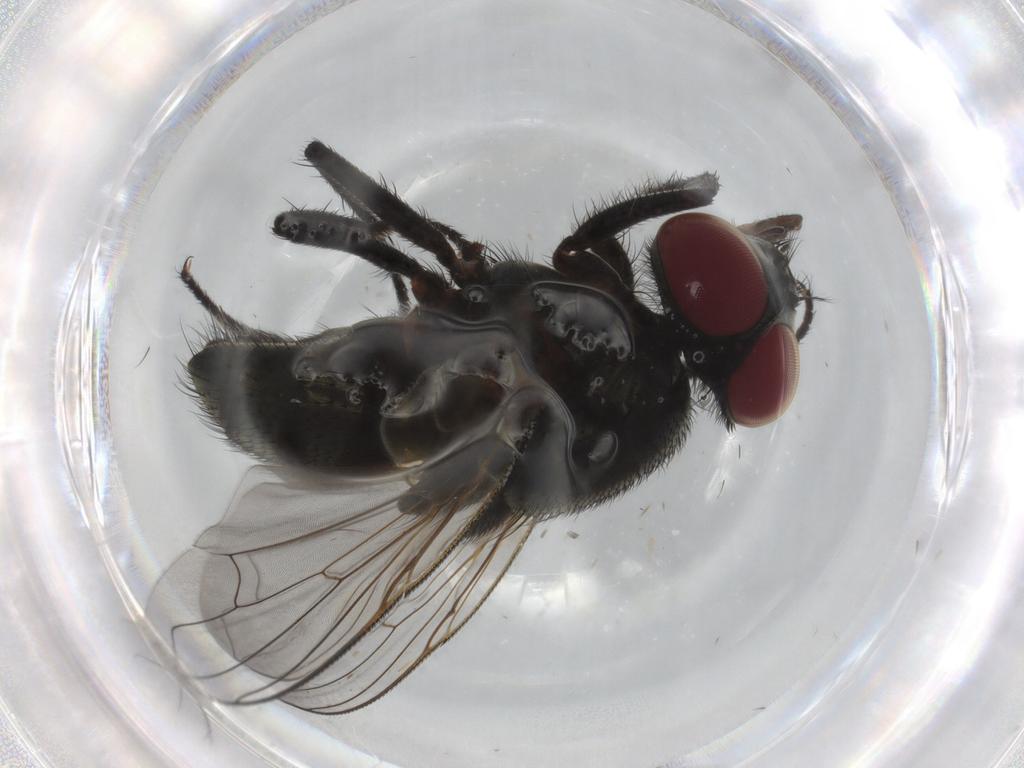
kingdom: Animalia
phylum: Arthropoda
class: Insecta
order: Diptera
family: Muscidae
